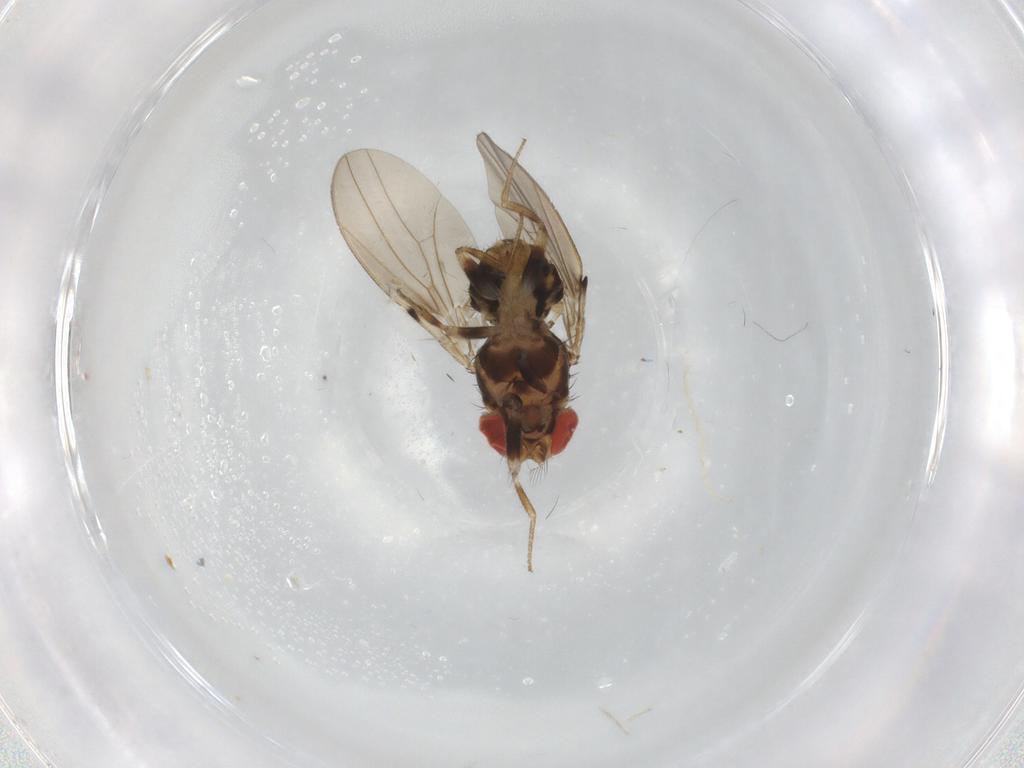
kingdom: Animalia
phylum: Arthropoda
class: Insecta
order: Diptera
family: Drosophilidae
